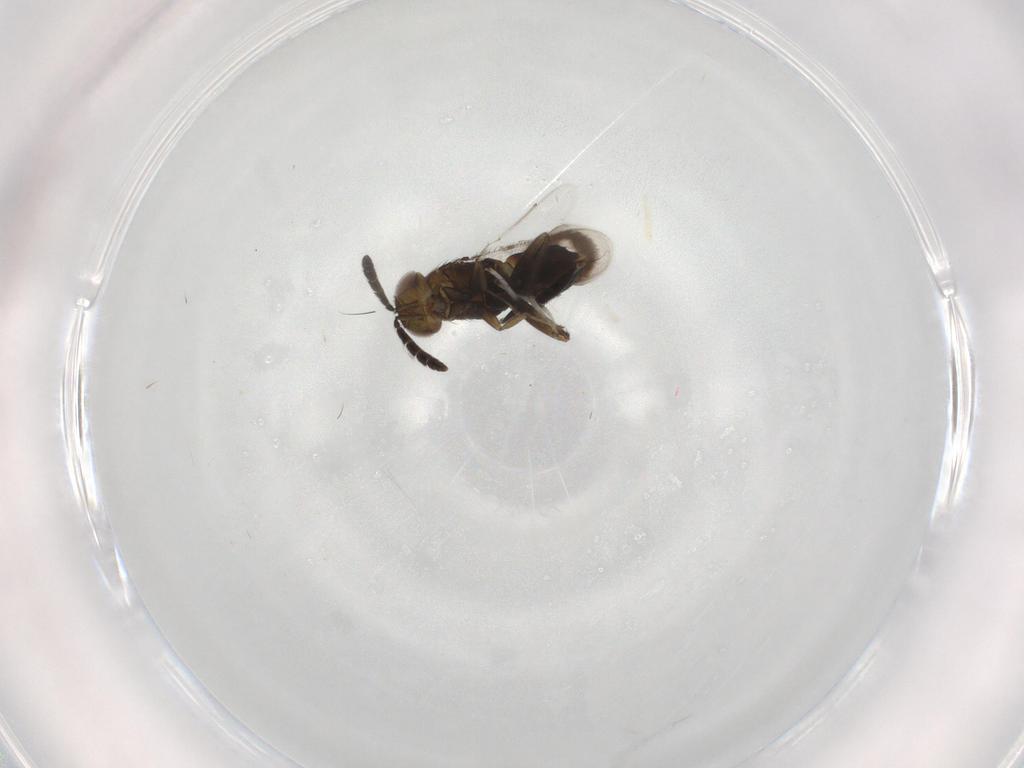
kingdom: Animalia
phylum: Arthropoda
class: Insecta
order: Hymenoptera
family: Aphelinidae
